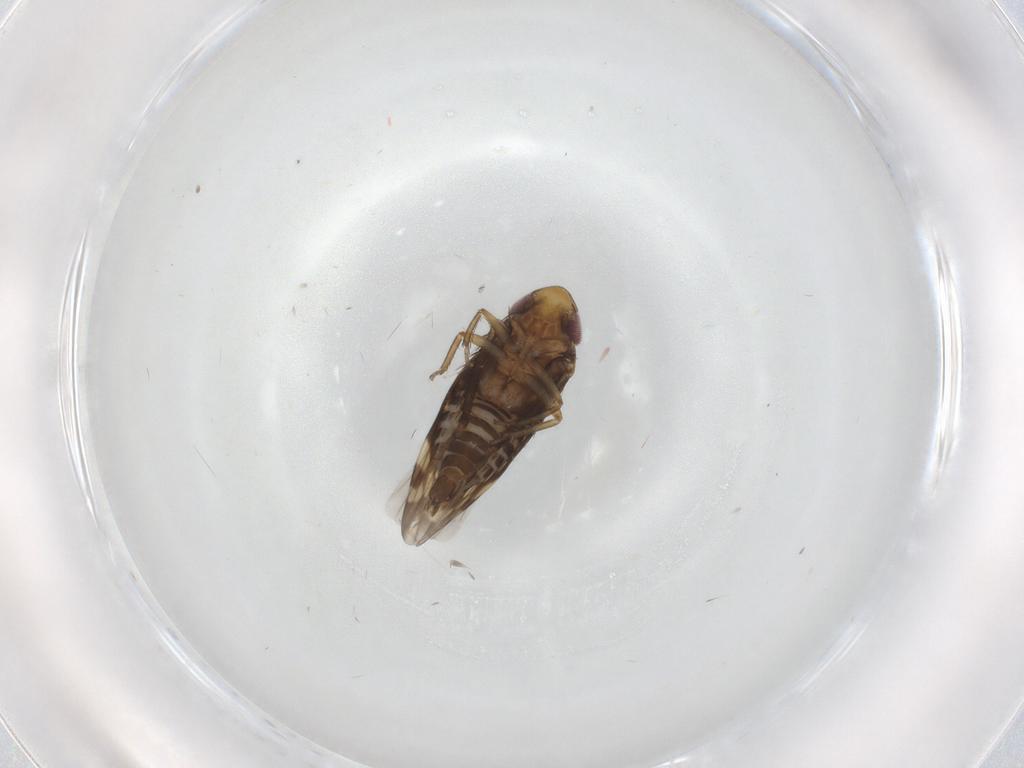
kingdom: Animalia
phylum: Arthropoda
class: Insecta
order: Hemiptera
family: Cicadellidae
